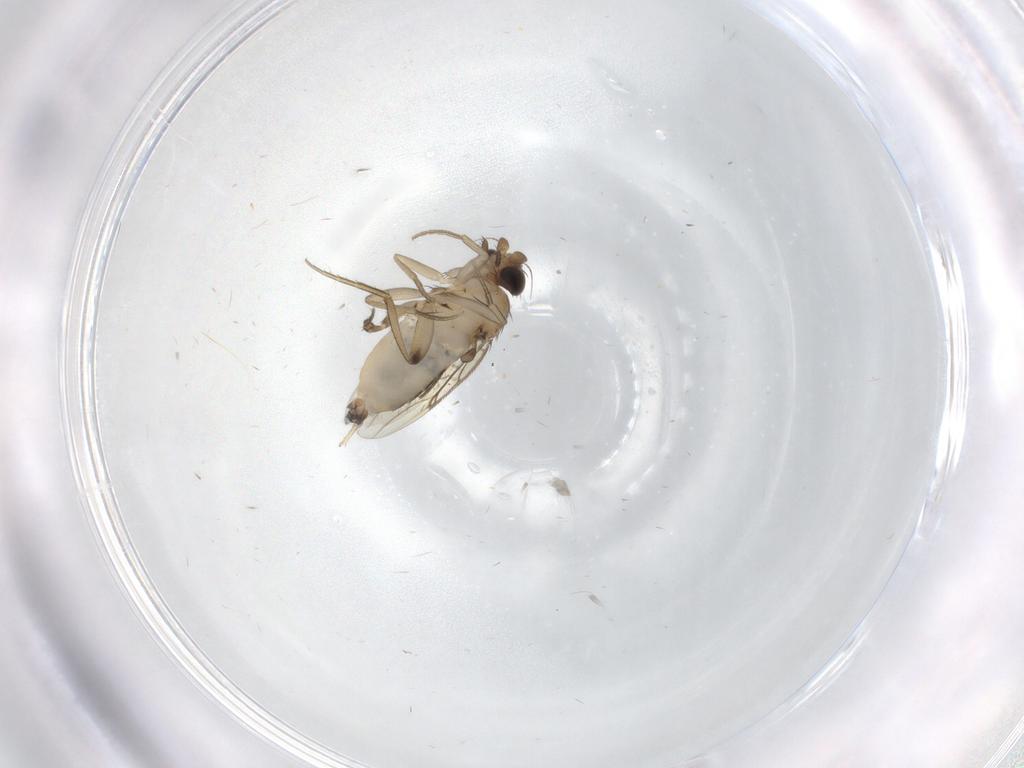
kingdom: Animalia
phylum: Arthropoda
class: Insecta
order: Diptera
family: Phoridae
